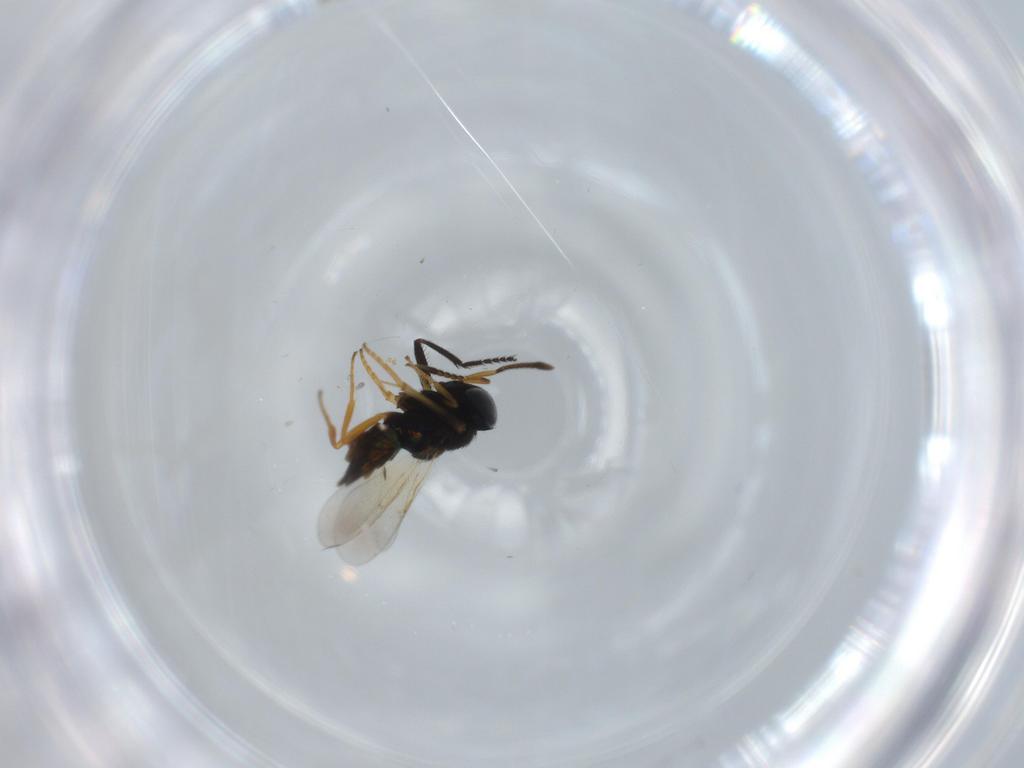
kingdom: Animalia
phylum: Arthropoda
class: Insecta
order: Hymenoptera
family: Encyrtidae
